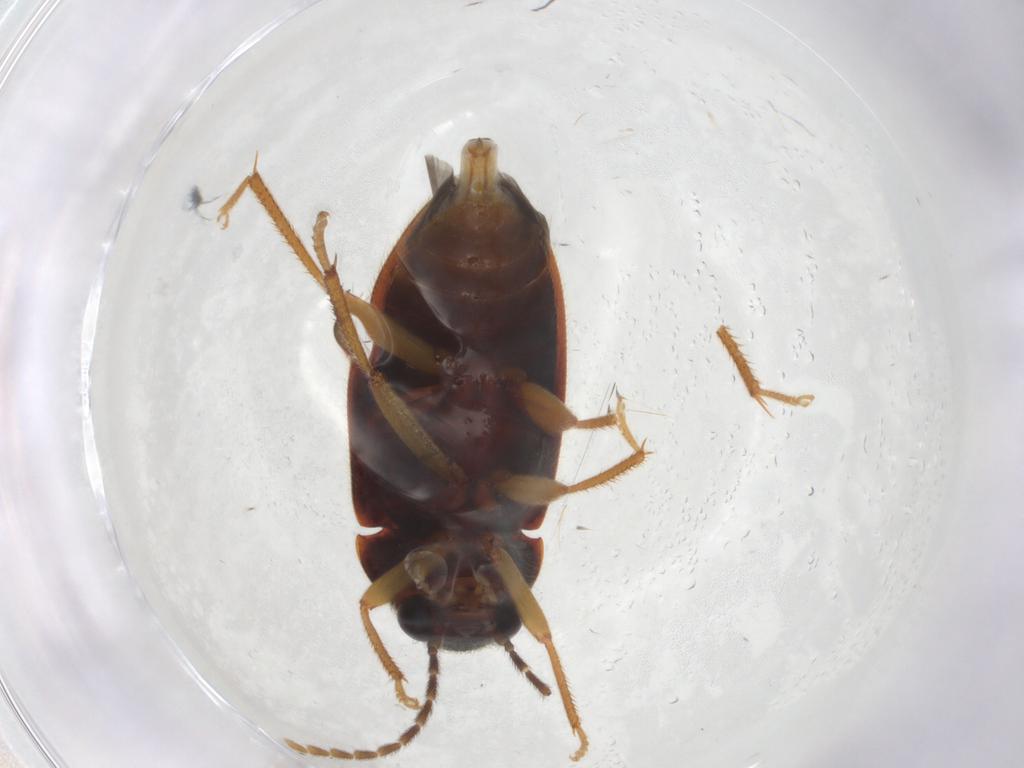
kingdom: Animalia
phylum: Arthropoda
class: Insecta
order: Coleoptera
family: Ptilodactylidae
